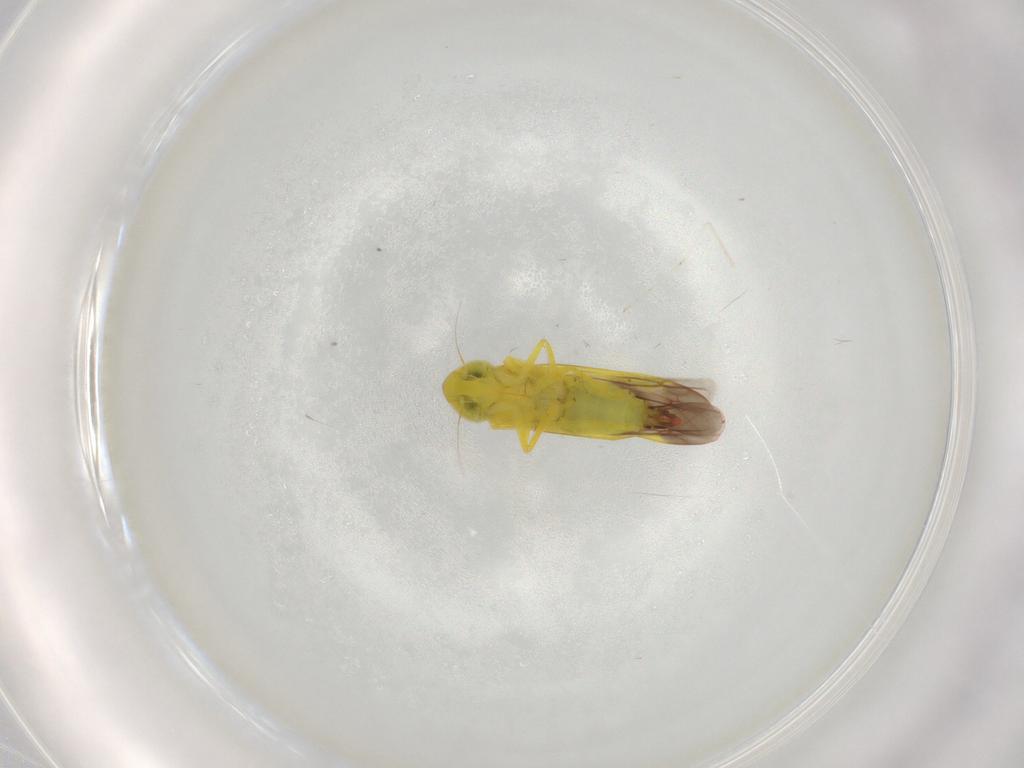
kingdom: Animalia
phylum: Arthropoda
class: Insecta
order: Hemiptera
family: Cicadellidae
